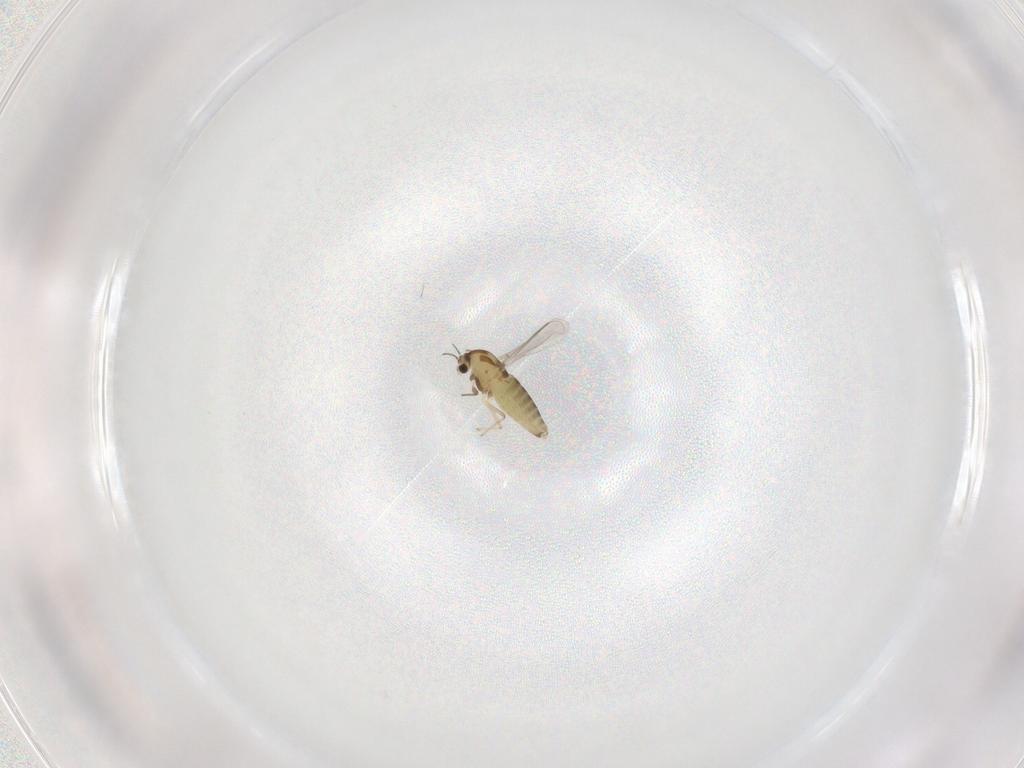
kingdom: Animalia
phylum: Arthropoda
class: Insecta
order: Diptera
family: Chironomidae
